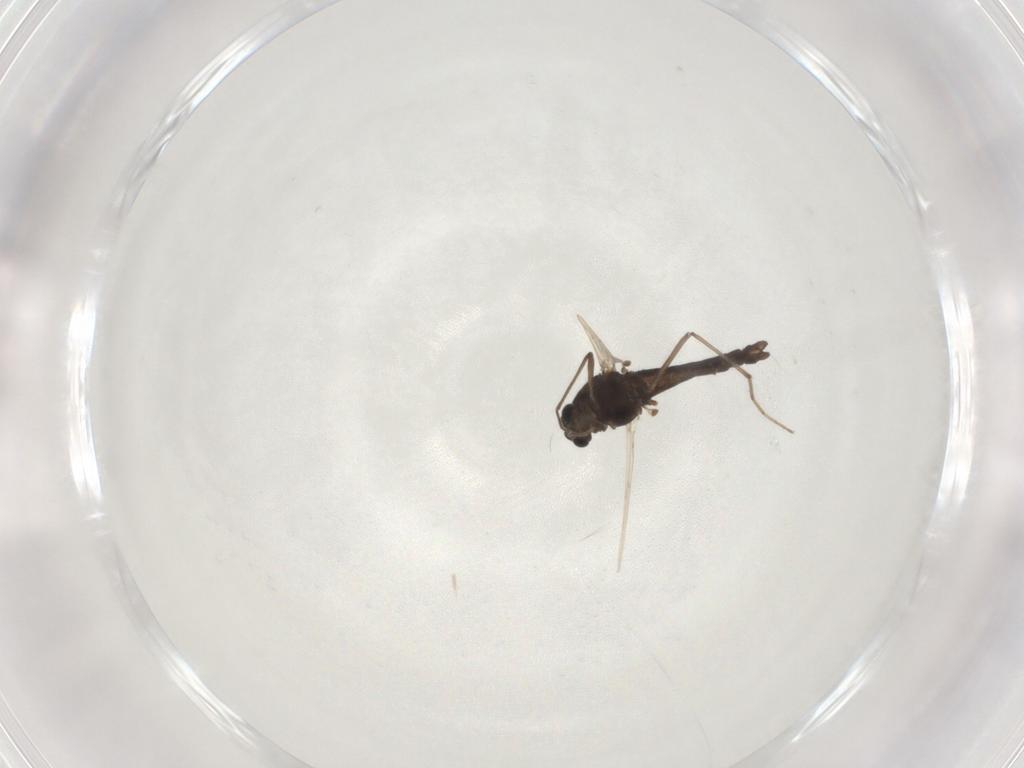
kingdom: Animalia
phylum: Arthropoda
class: Insecta
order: Diptera
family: Chironomidae
